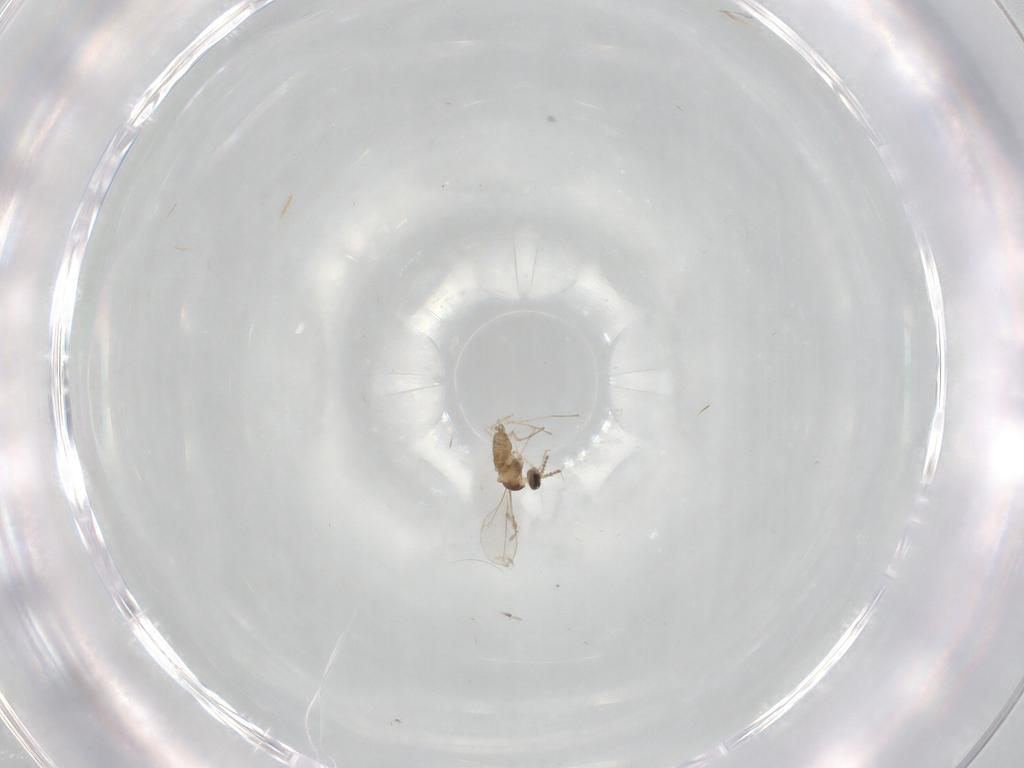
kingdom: Animalia
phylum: Arthropoda
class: Insecta
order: Diptera
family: Cecidomyiidae
